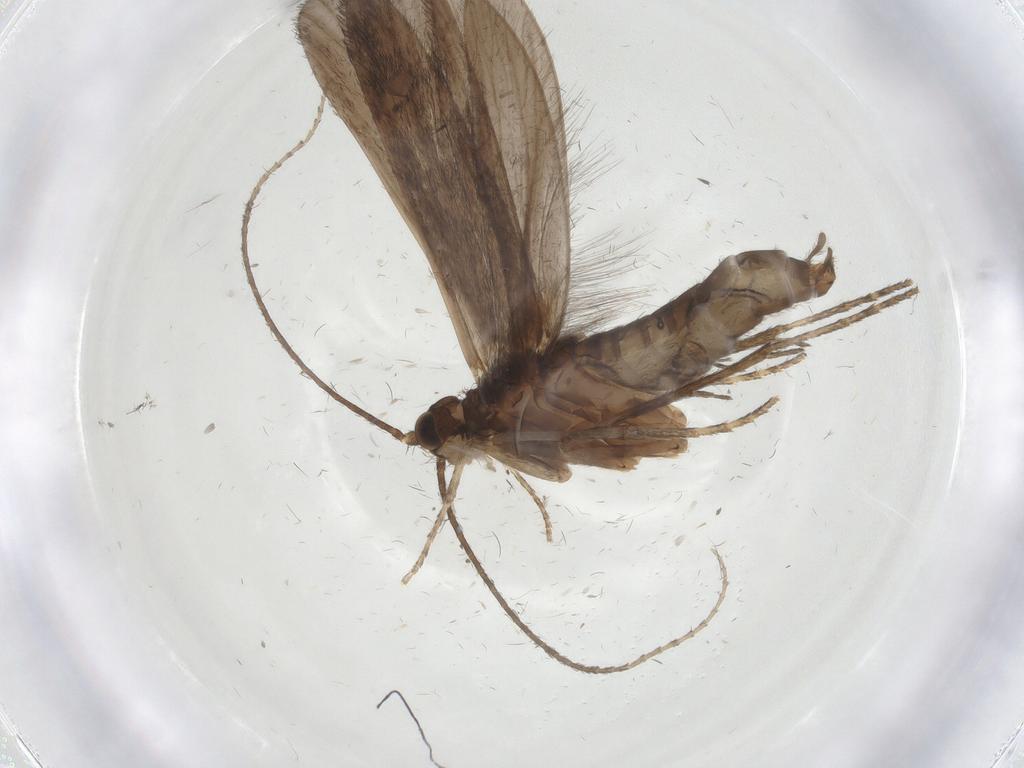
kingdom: Animalia
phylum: Arthropoda
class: Insecta
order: Trichoptera
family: Xiphocentronidae
